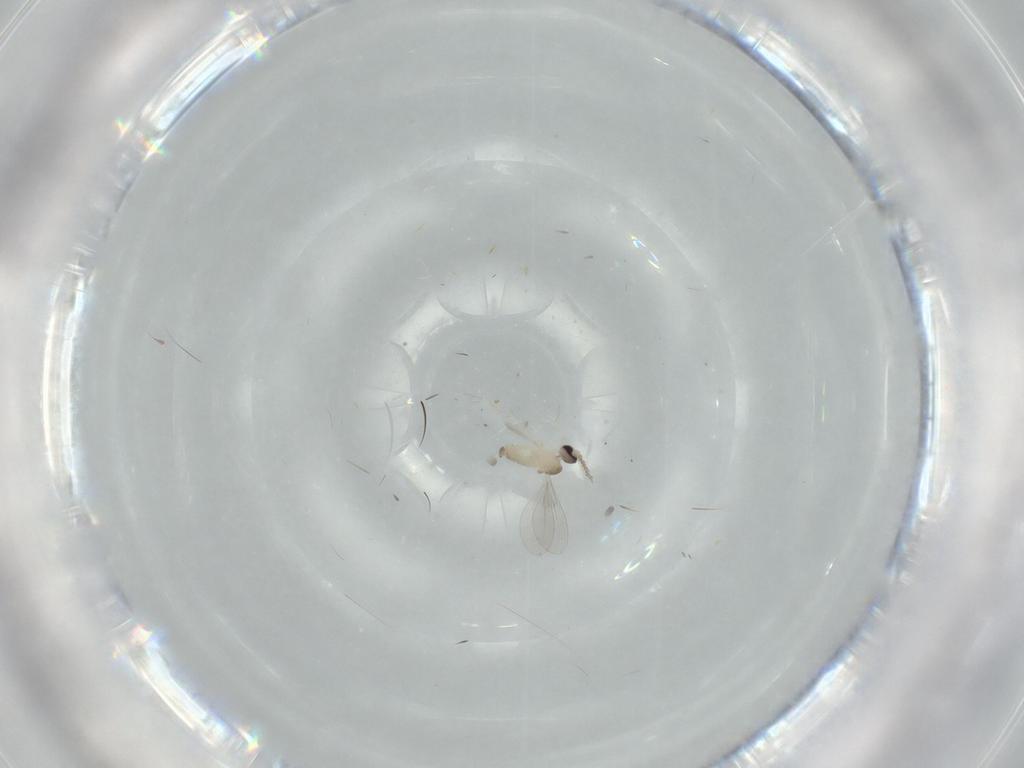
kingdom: Animalia
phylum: Arthropoda
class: Insecta
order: Diptera
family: Cecidomyiidae
